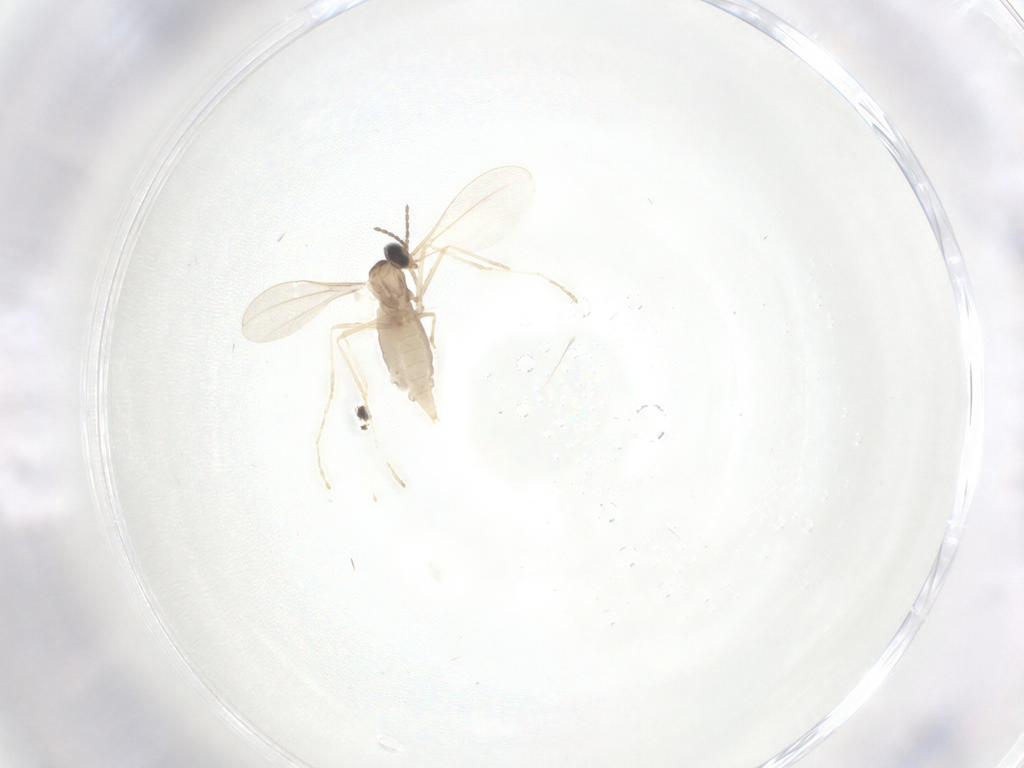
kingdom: Animalia
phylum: Arthropoda
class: Insecta
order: Diptera
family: Cecidomyiidae
